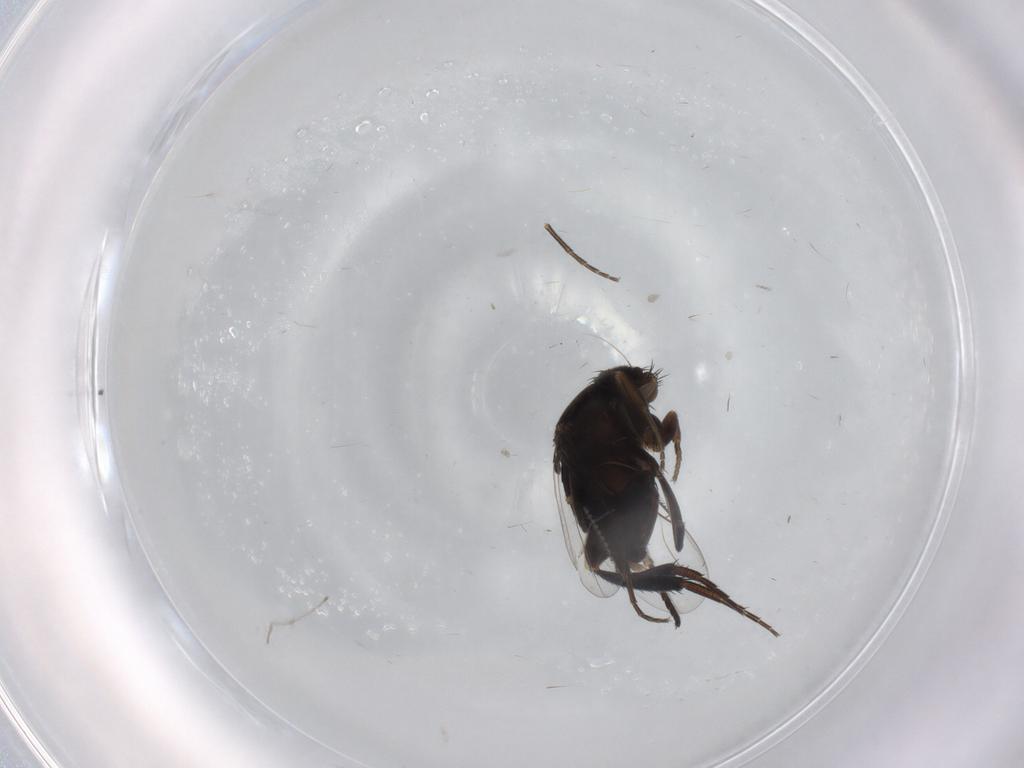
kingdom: Animalia
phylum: Arthropoda
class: Insecta
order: Diptera
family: Phoridae
